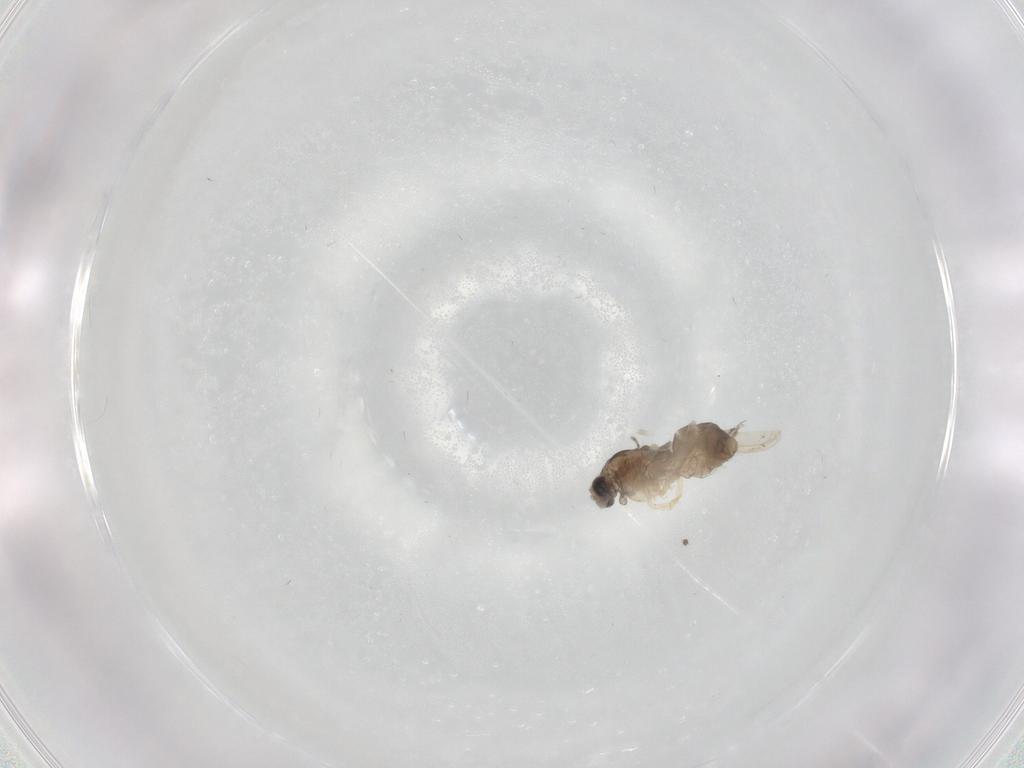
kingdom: Animalia
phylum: Arthropoda
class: Insecta
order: Diptera
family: Chironomidae
